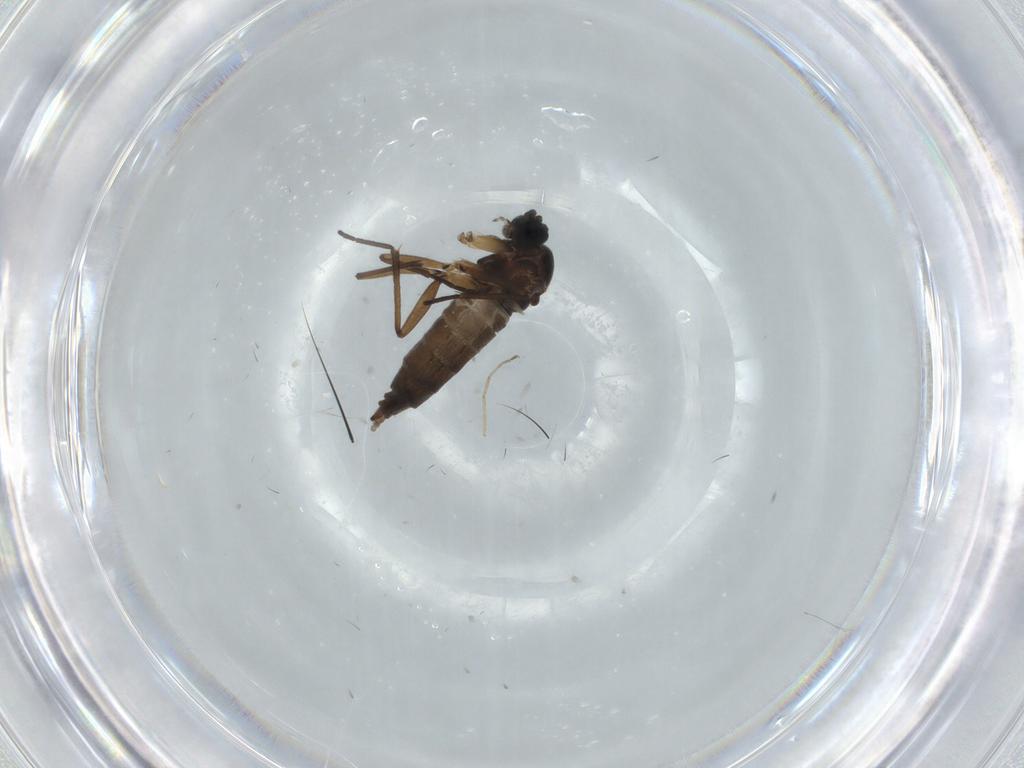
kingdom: Animalia
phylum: Arthropoda
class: Insecta
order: Diptera
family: Sciaridae
